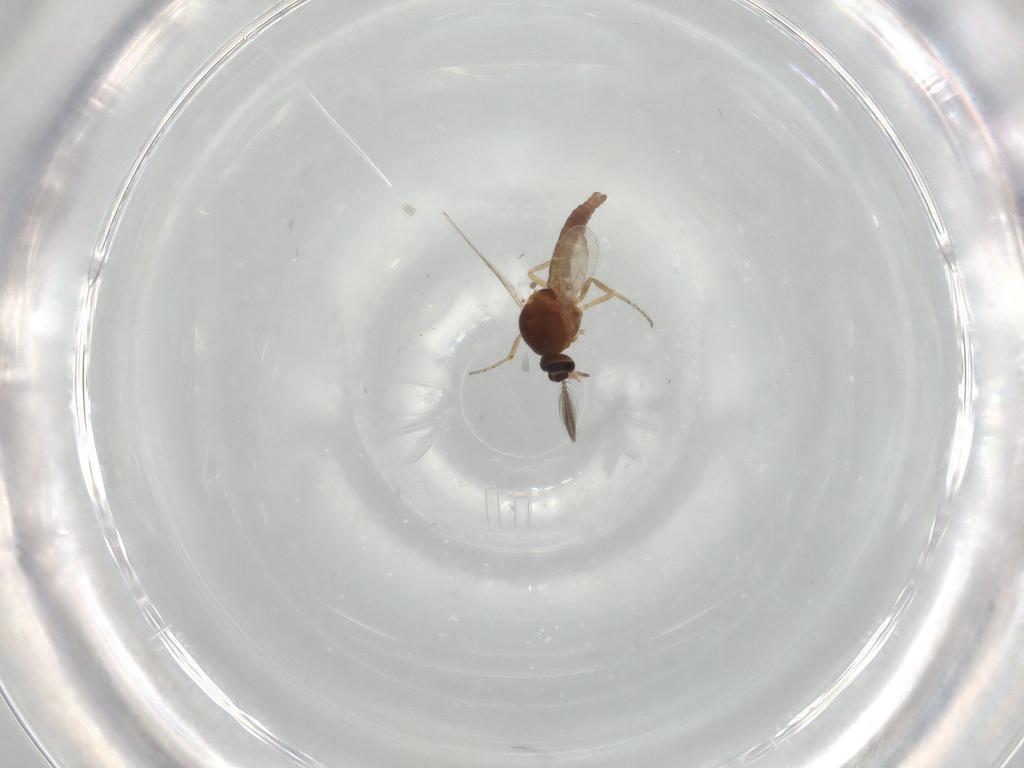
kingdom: Animalia
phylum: Arthropoda
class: Insecta
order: Diptera
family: Ceratopogonidae
